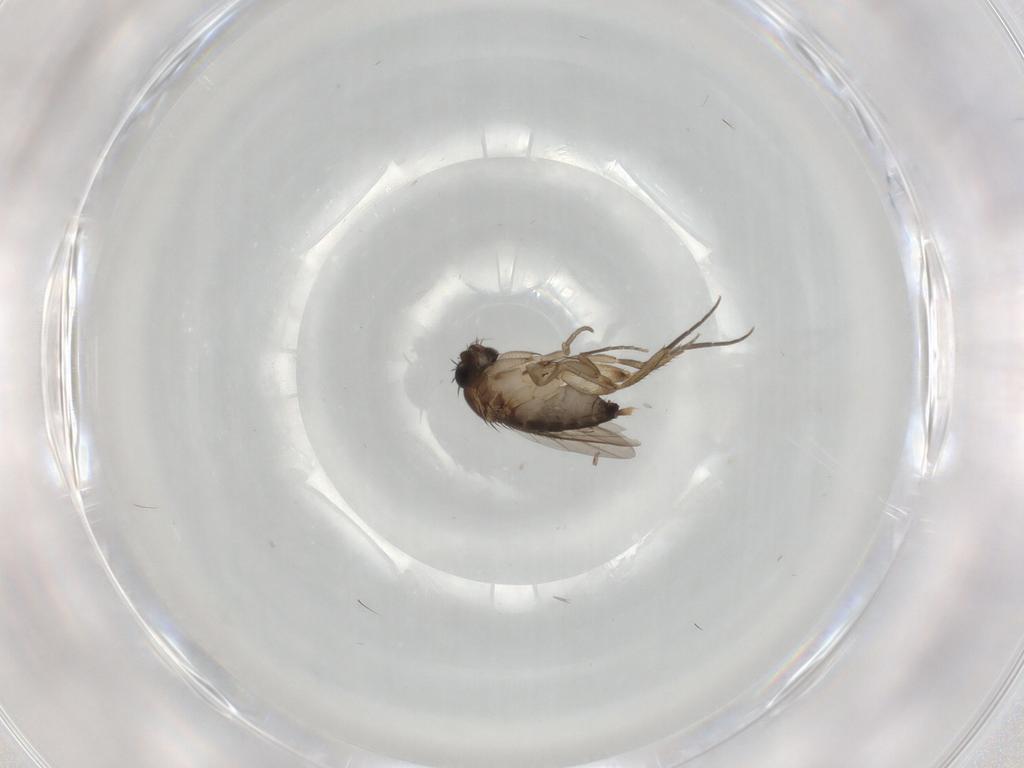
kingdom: Animalia
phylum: Arthropoda
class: Insecta
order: Diptera
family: Phoridae
